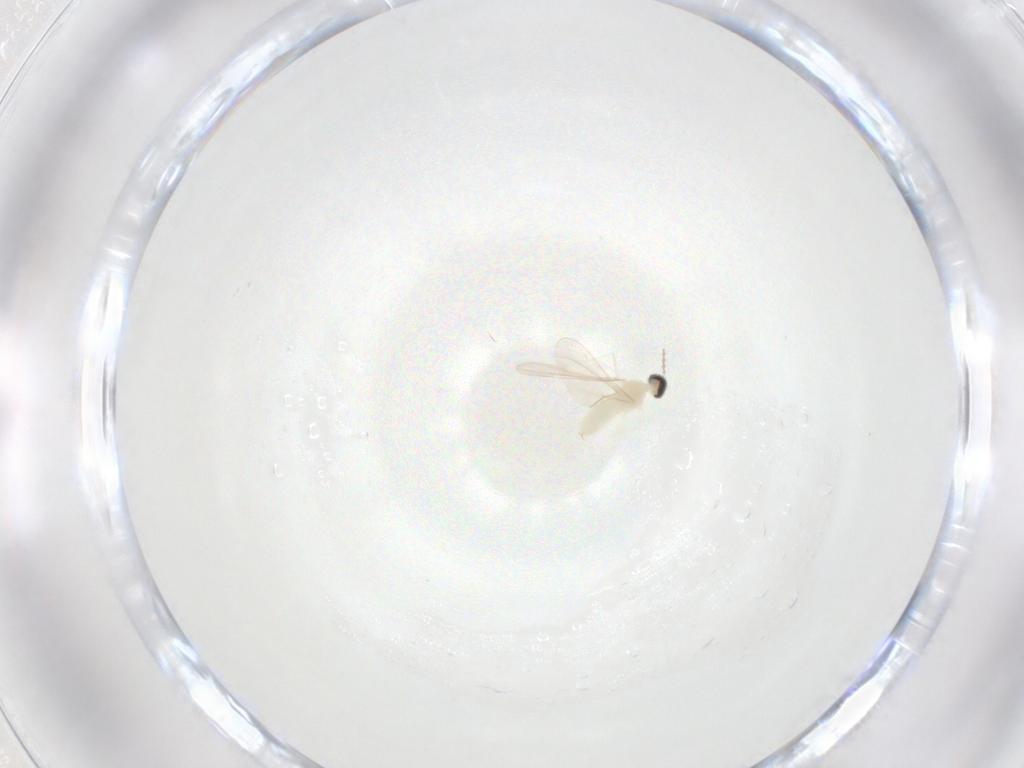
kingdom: Animalia
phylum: Arthropoda
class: Insecta
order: Diptera
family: Cecidomyiidae
